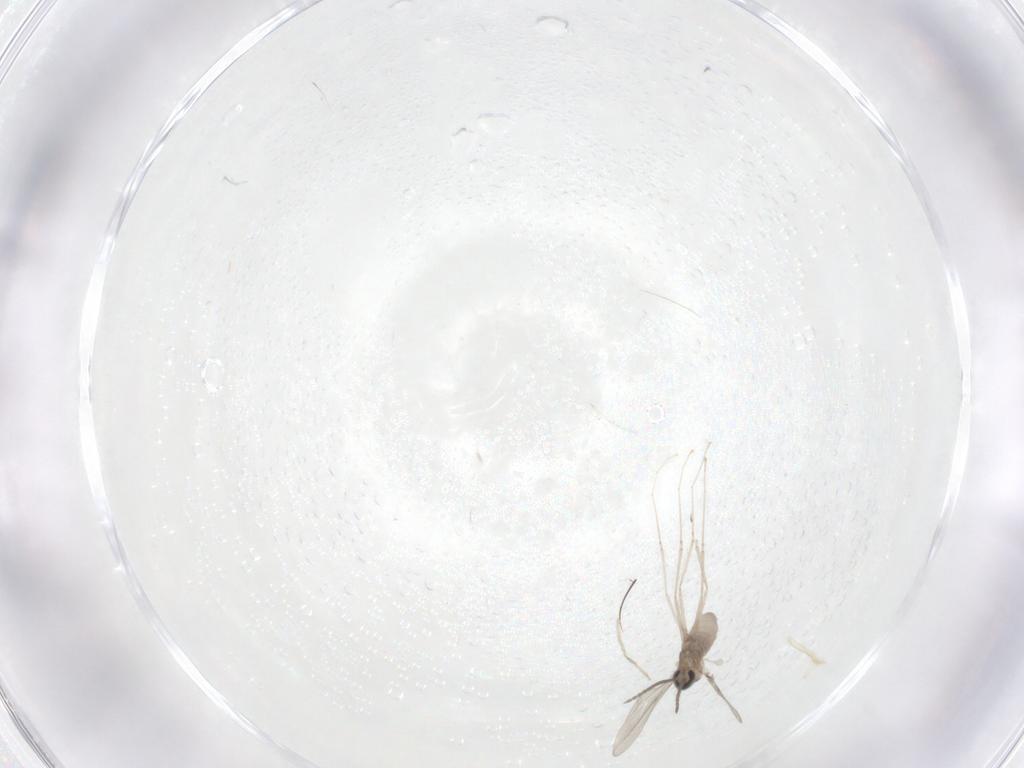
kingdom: Animalia
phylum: Arthropoda
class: Insecta
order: Diptera
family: Cecidomyiidae
